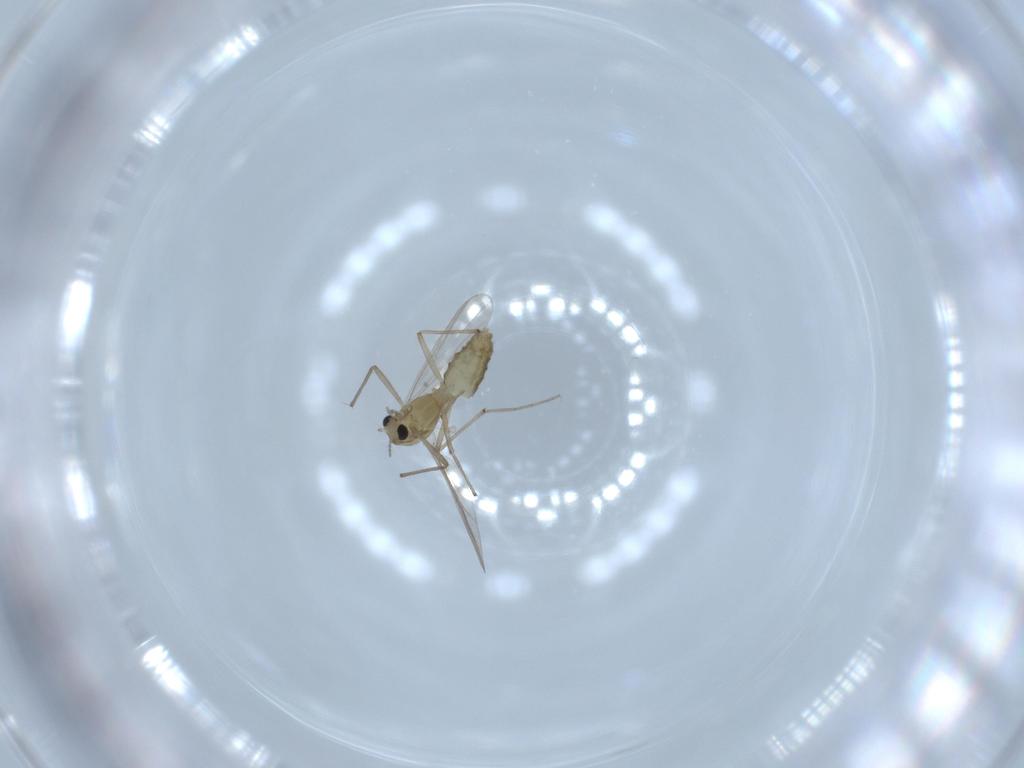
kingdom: Animalia
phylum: Arthropoda
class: Insecta
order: Diptera
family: Chironomidae
